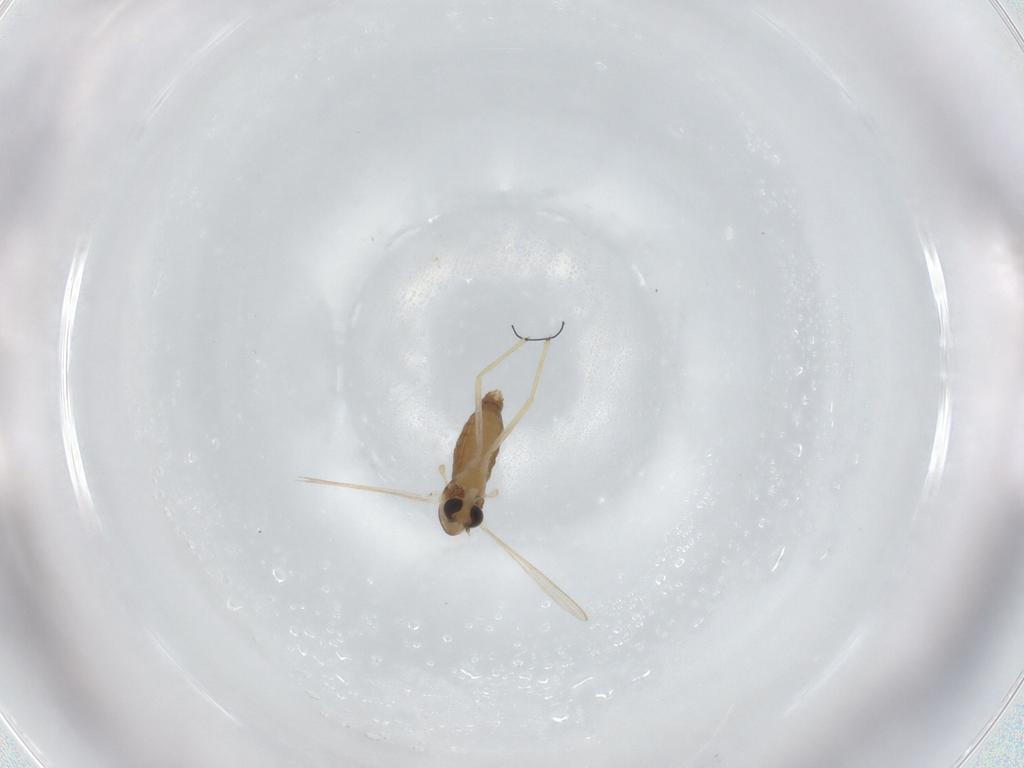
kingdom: Animalia
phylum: Arthropoda
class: Insecta
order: Diptera
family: Chironomidae
